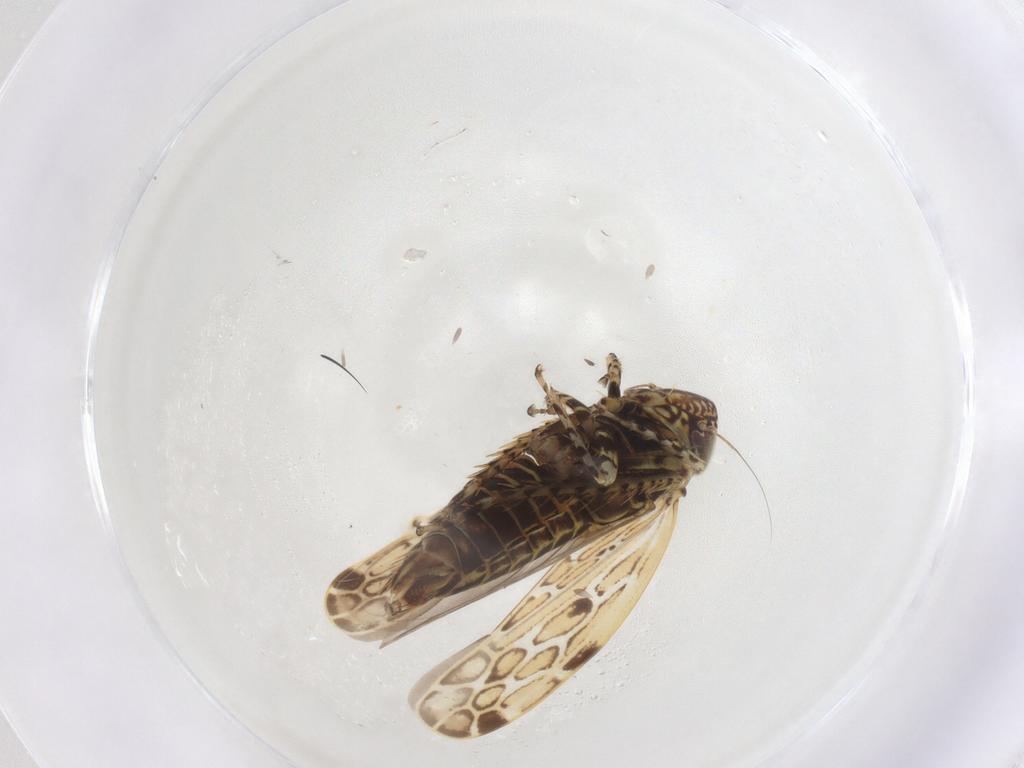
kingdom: Animalia
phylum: Arthropoda
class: Insecta
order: Hemiptera
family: Cicadellidae
